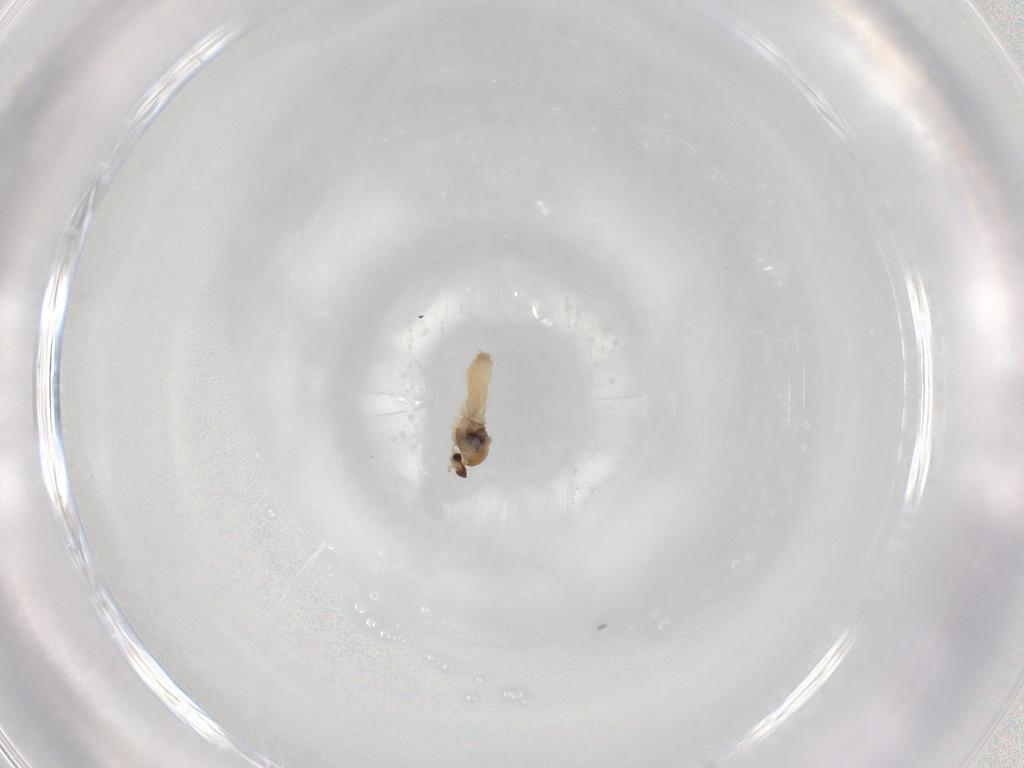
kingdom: Animalia
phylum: Arthropoda
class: Insecta
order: Diptera
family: Cecidomyiidae
